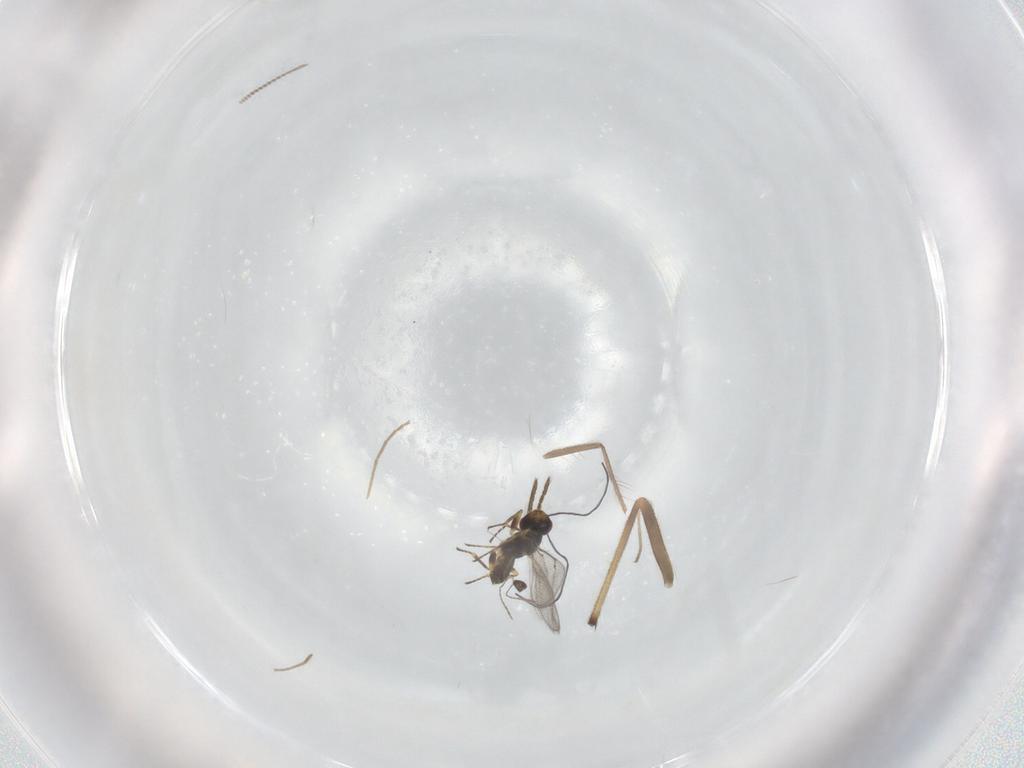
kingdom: Animalia
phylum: Arthropoda
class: Insecta
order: Hymenoptera
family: Eulophidae
